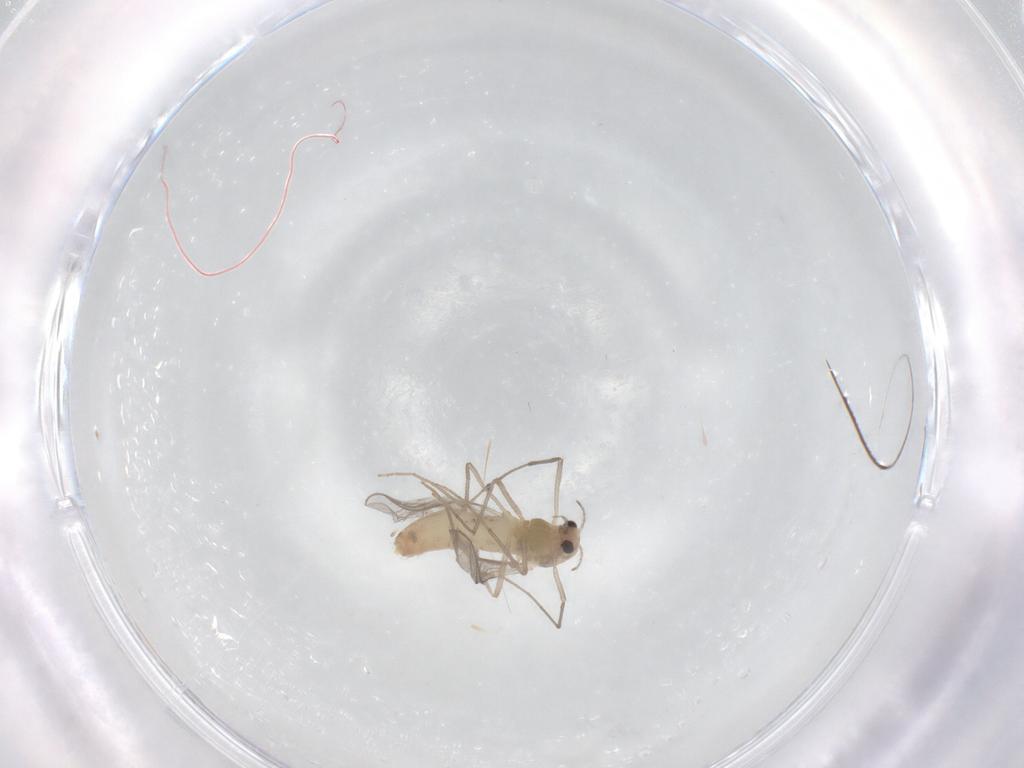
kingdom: Animalia
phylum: Arthropoda
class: Insecta
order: Diptera
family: Chironomidae
